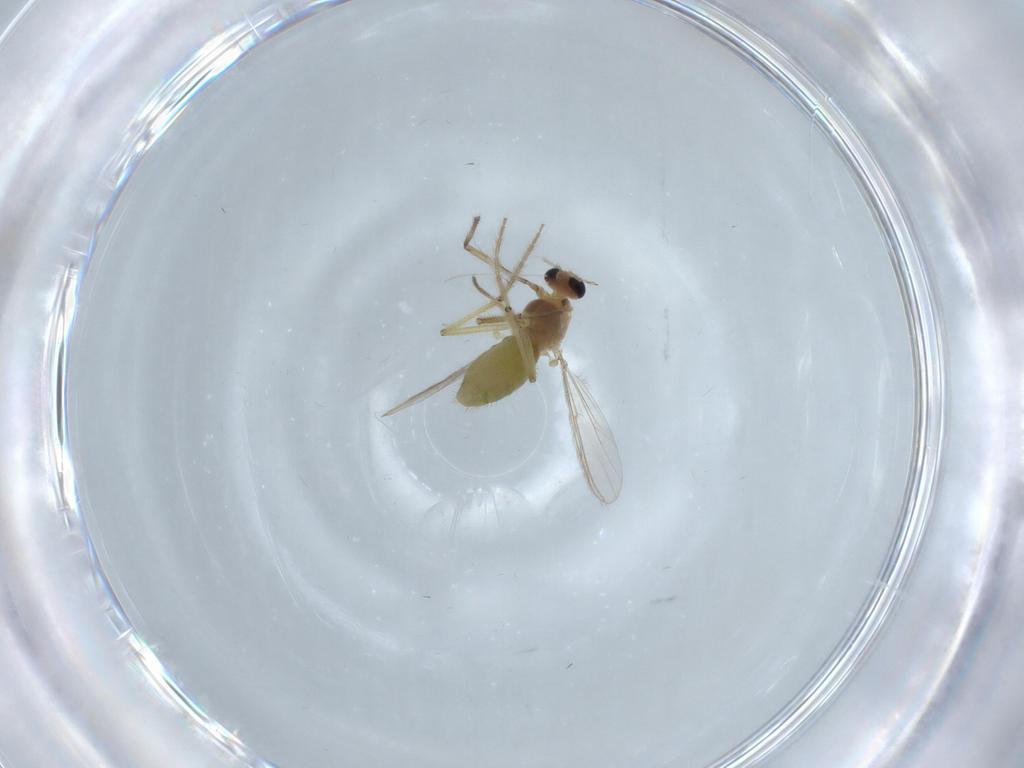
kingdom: Animalia
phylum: Arthropoda
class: Insecta
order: Diptera
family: Chironomidae
